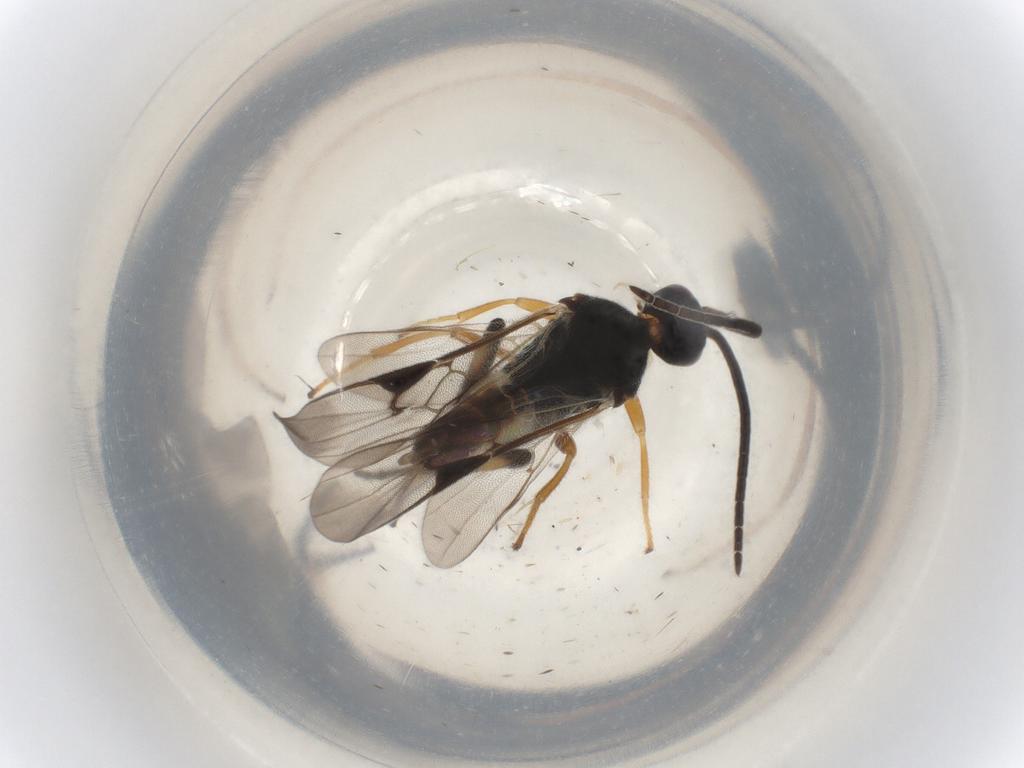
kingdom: Animalia
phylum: Arthropoda
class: Insecta
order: Hymenoptera
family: Braconidae
